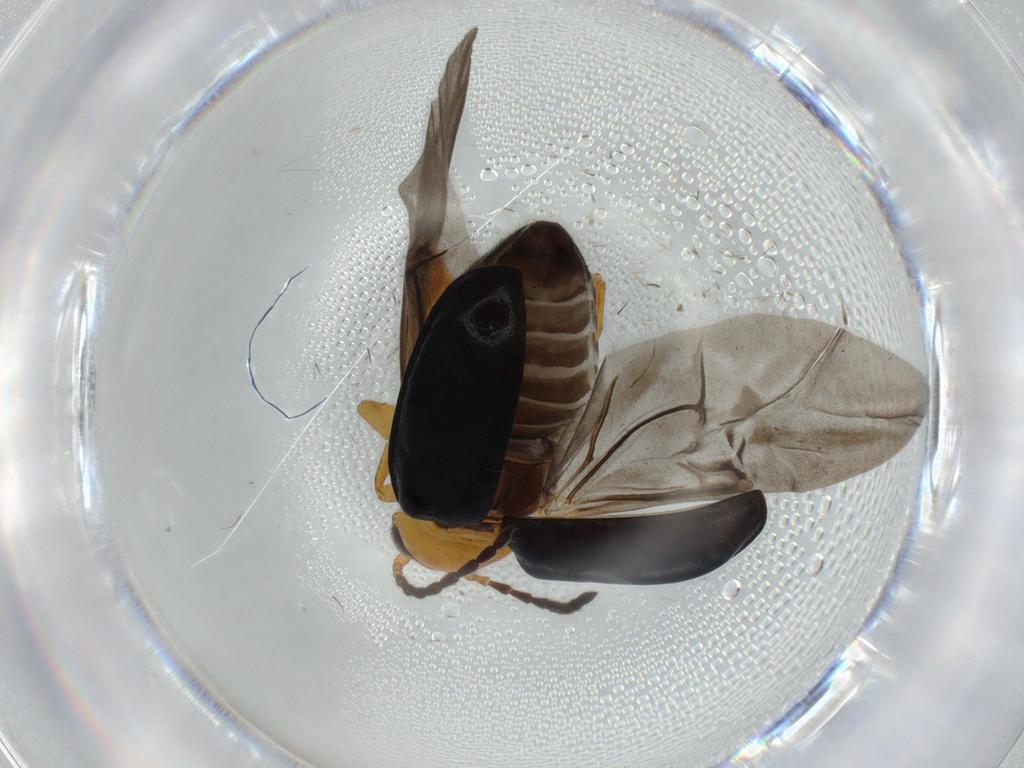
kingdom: Animalia
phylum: Arthropoda
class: Insecta
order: Coleoptera
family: Chrysomelidae
